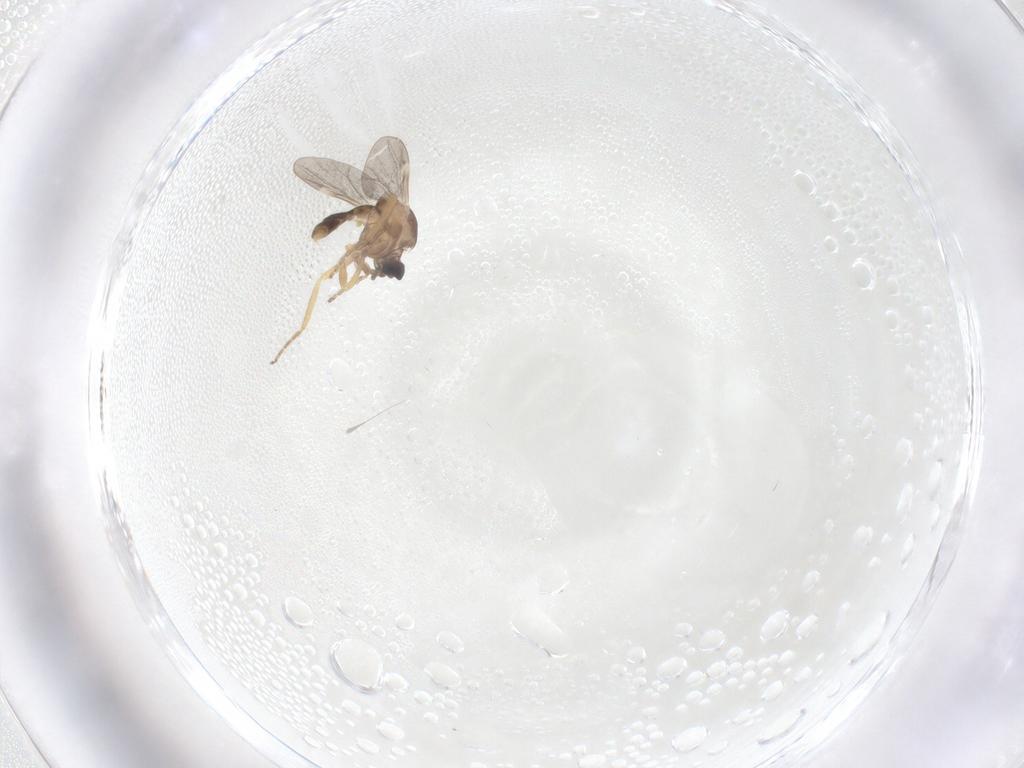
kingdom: Animalia
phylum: Arthropoda
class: Insecta
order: Diptera
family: Ceratopogonidae
